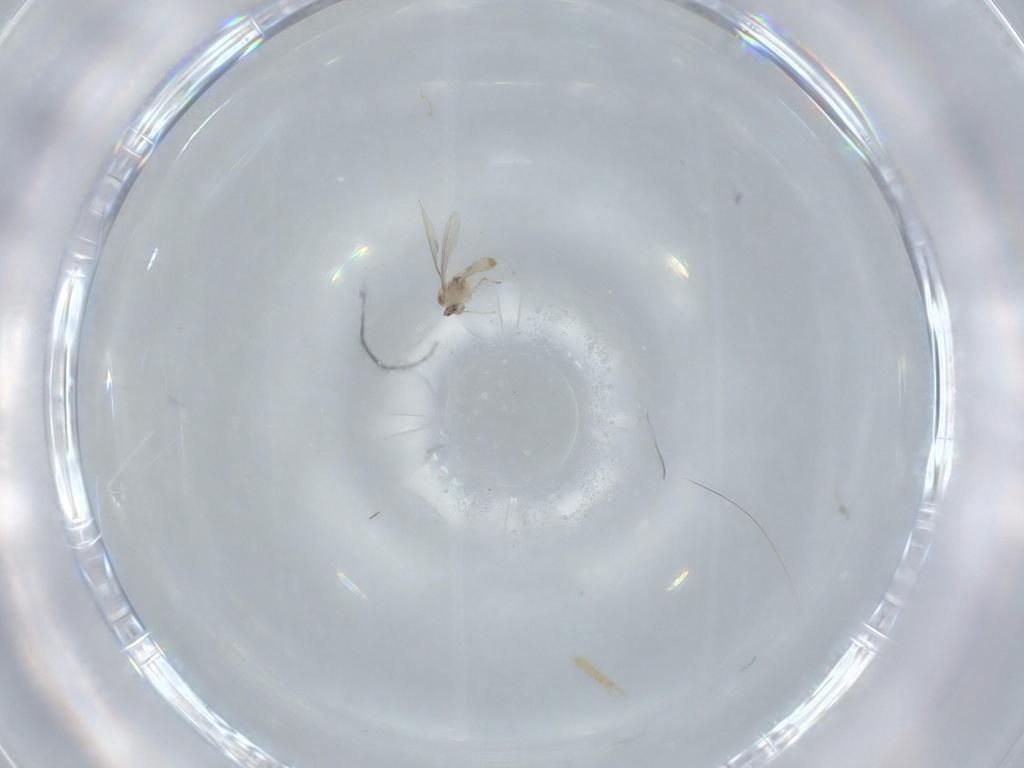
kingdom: Animalia
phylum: Arthropoda
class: Insecta
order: Diptera
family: Cecidomyiidae
